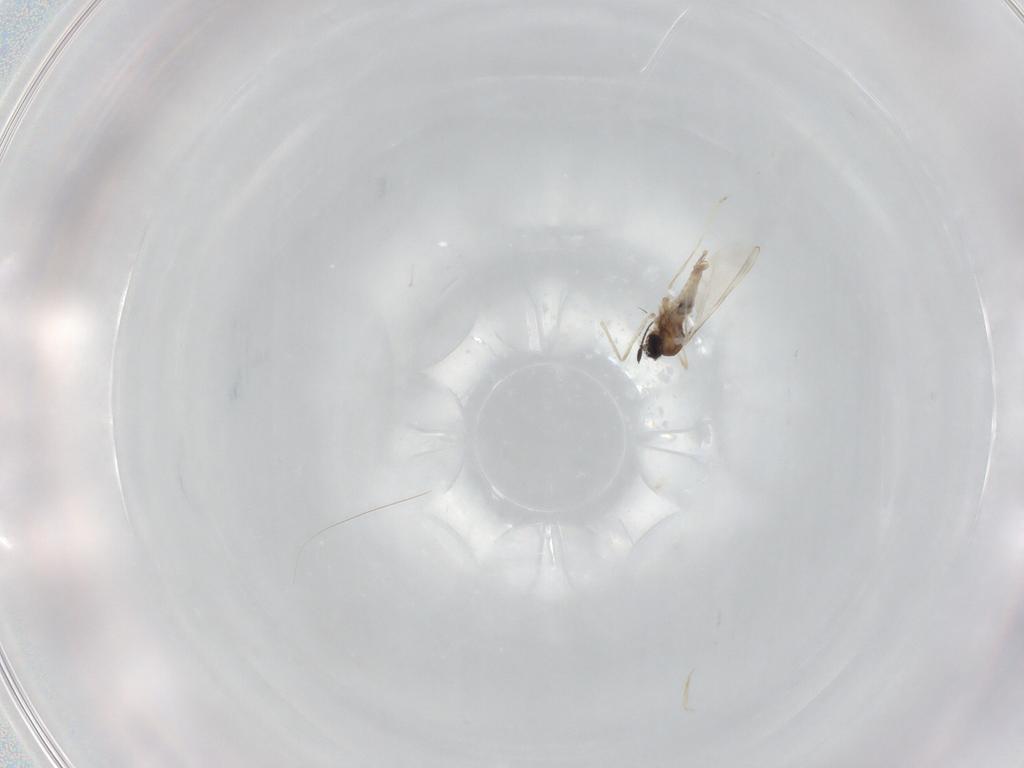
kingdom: Animalia
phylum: Arthropoda
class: Insecta
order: Diptera
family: Cecidomyiidae
